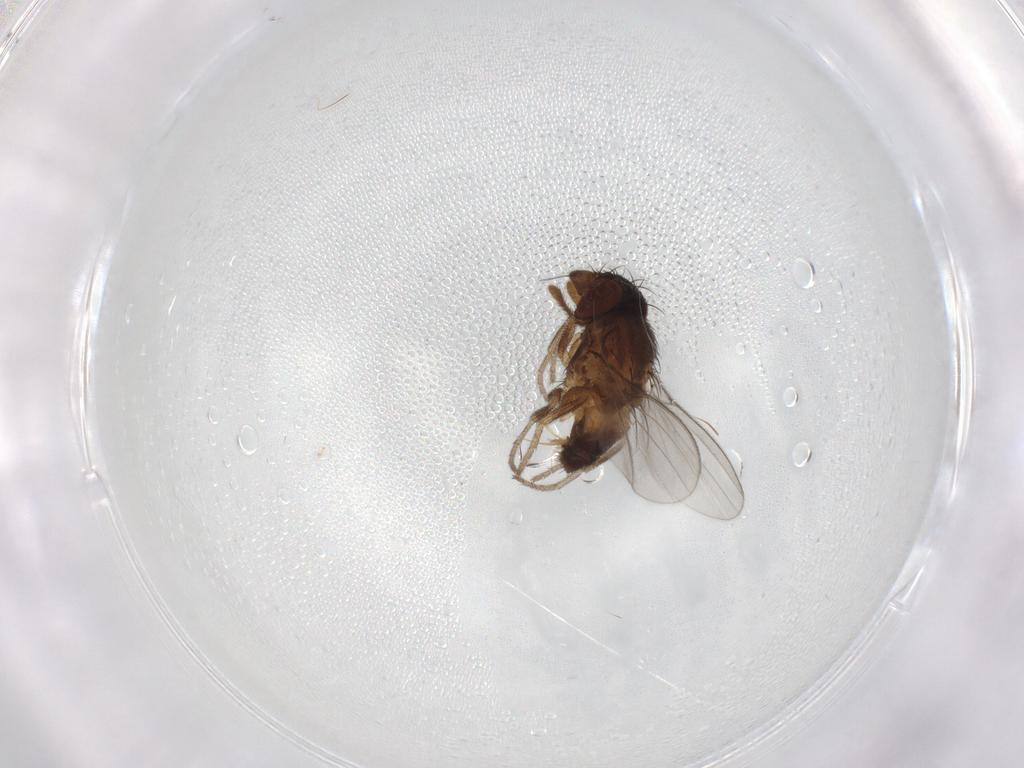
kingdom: Animalia
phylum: Arthropoda
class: Insecta
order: Diptera
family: Milichiidae
